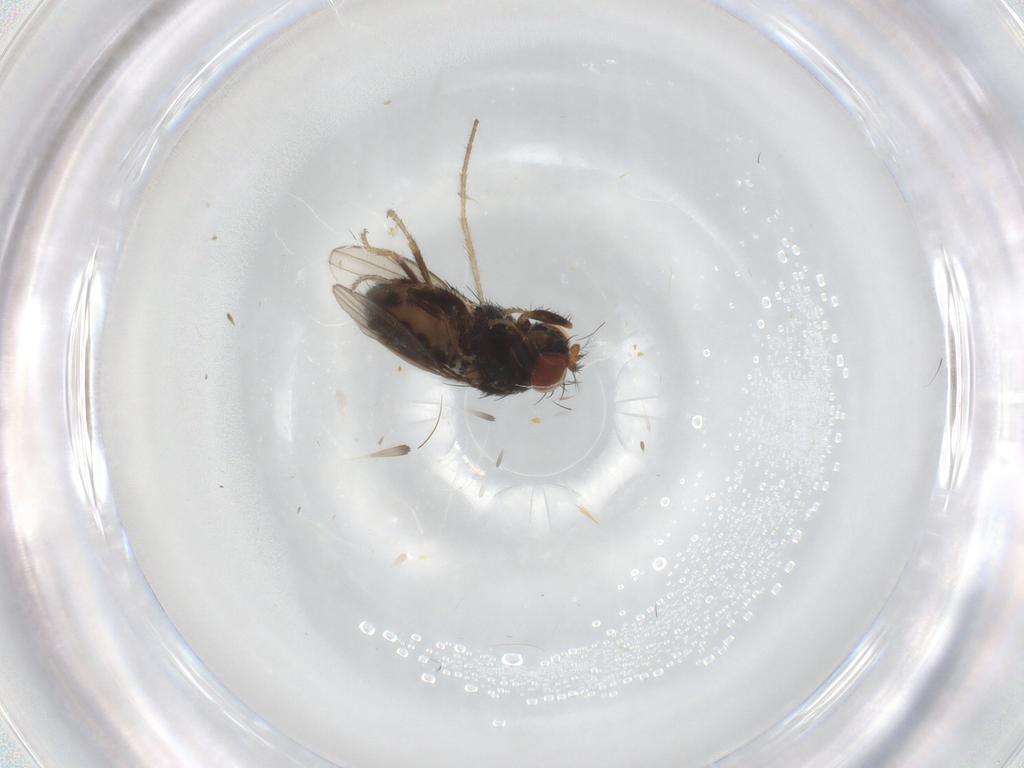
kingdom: Animalia
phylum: Arthropoda
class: Insecta
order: Diptera
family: Ephydridae
